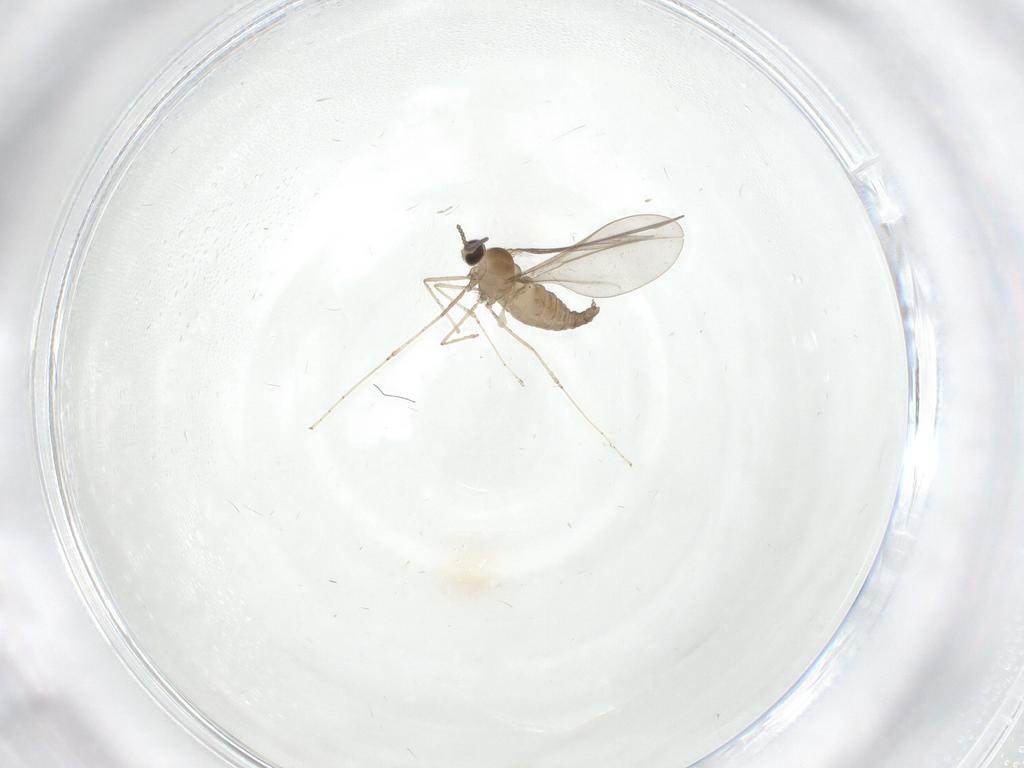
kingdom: Animalia
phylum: Arthropoda
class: Insecta
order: Diptera
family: Cecidomyiidae
